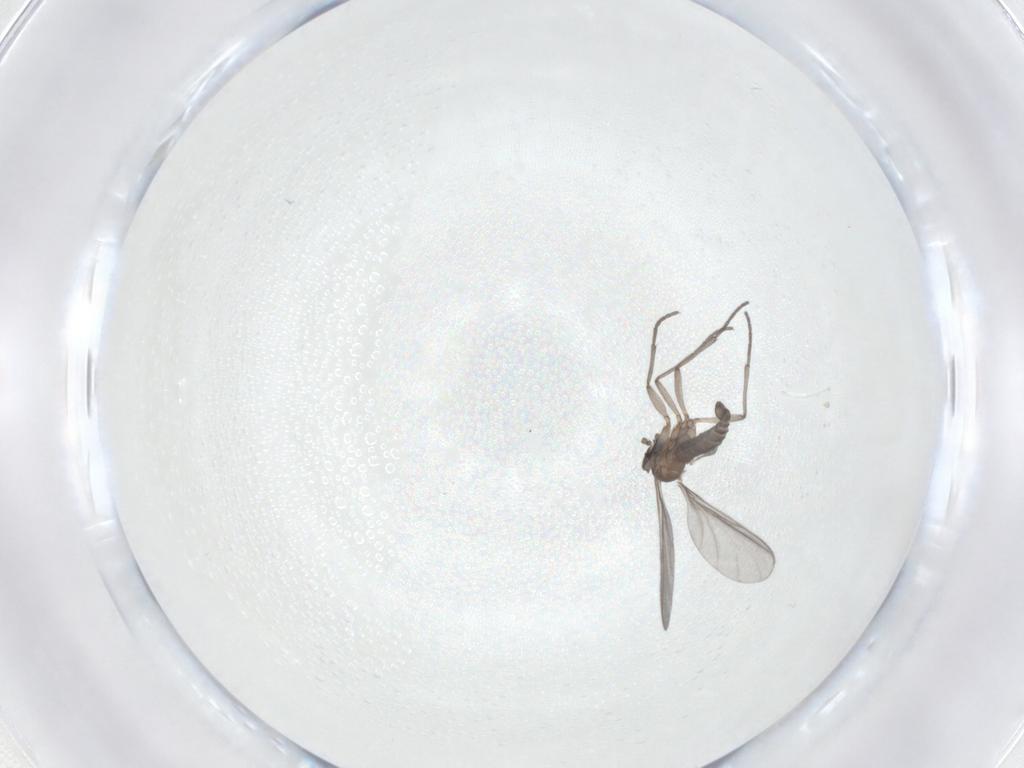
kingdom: Animalia
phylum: Arthropoda
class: Insecta
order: Diptera
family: Sciaridae
